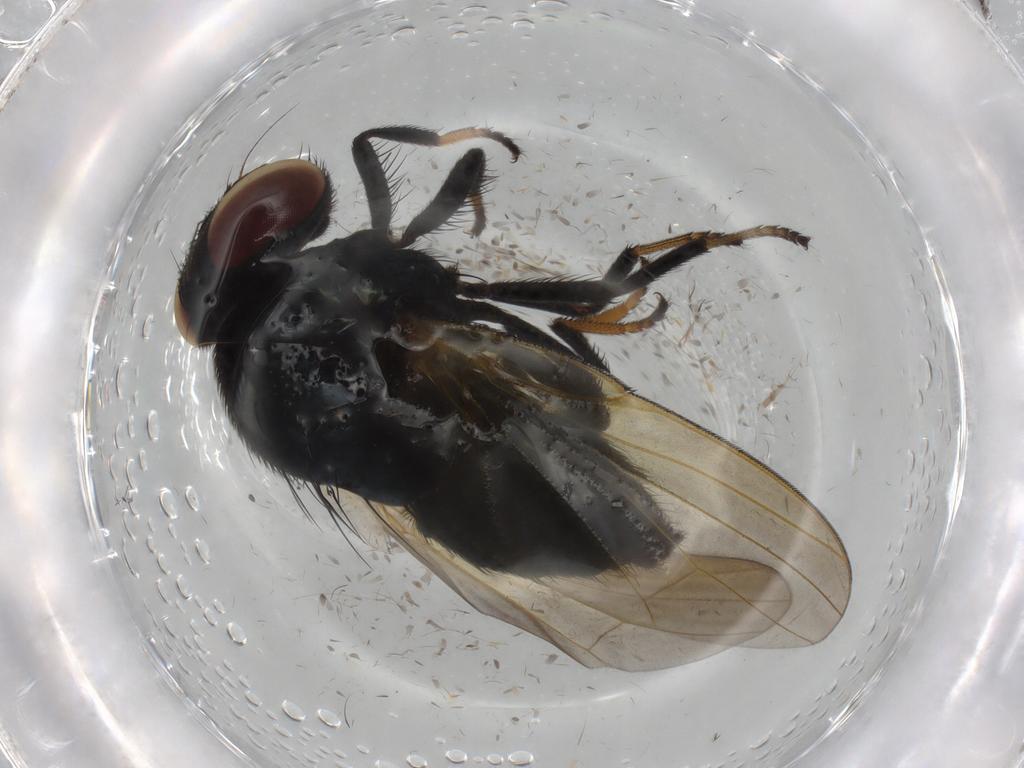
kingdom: Animalia
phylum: Arthropoda
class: Insecta
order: Diptera
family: Lonchaeidae
